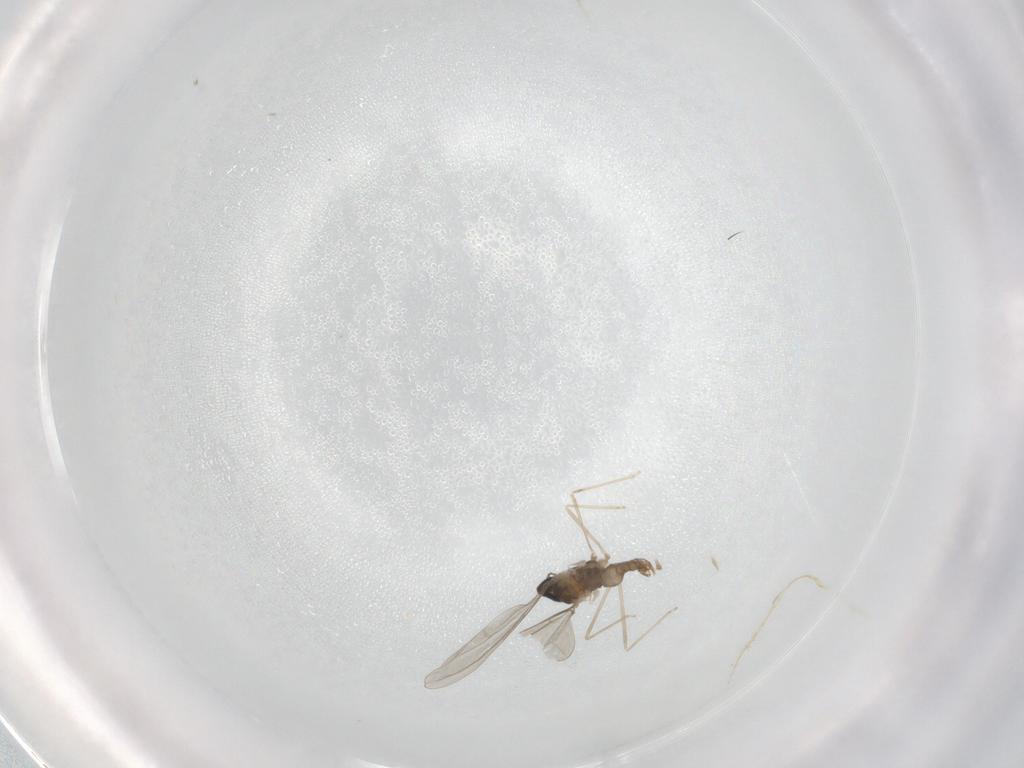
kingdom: Animalia
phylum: Arthropoda
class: Insecta
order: Diptera
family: Cecidomyiidae
